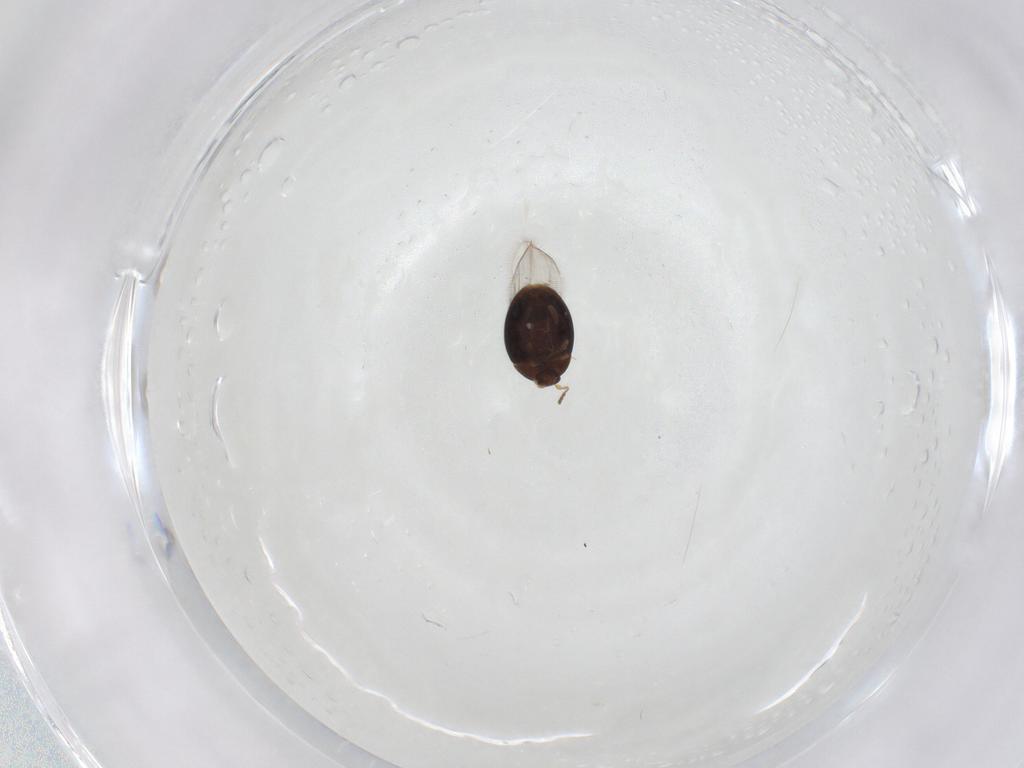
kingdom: Animalia
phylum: Arthropoda
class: Insecta
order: Coleoptera
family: Corylophidae
